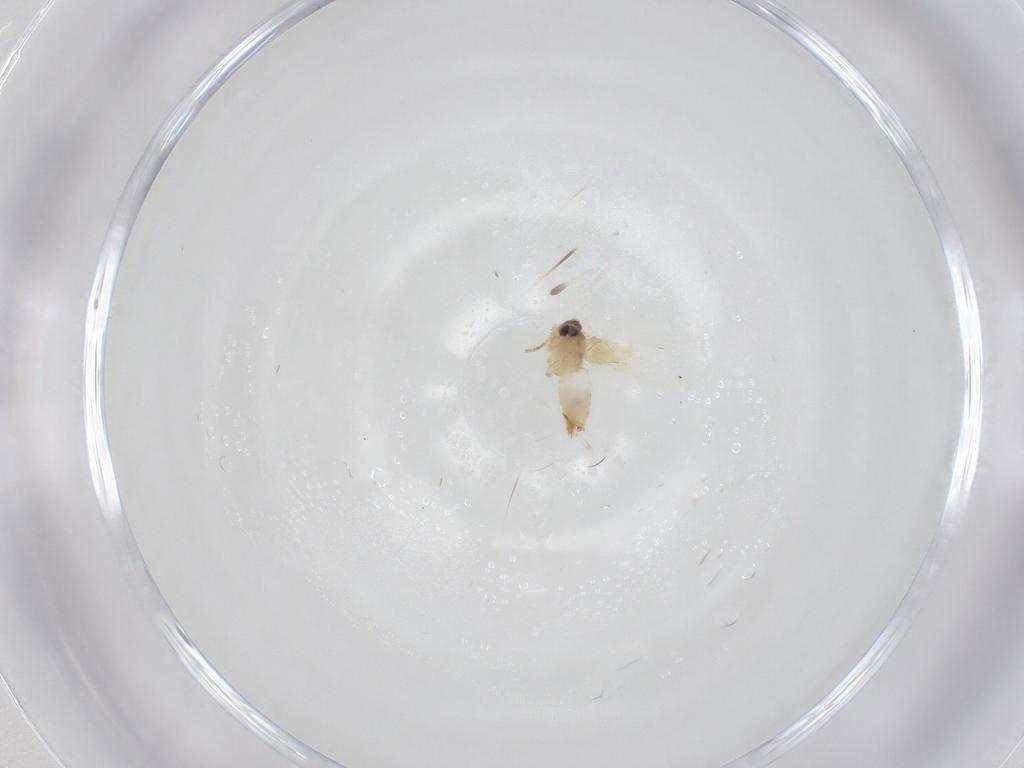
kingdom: Animalia
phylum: Arthropoda
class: Insecta
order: Lepidoptera
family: Crambidae
